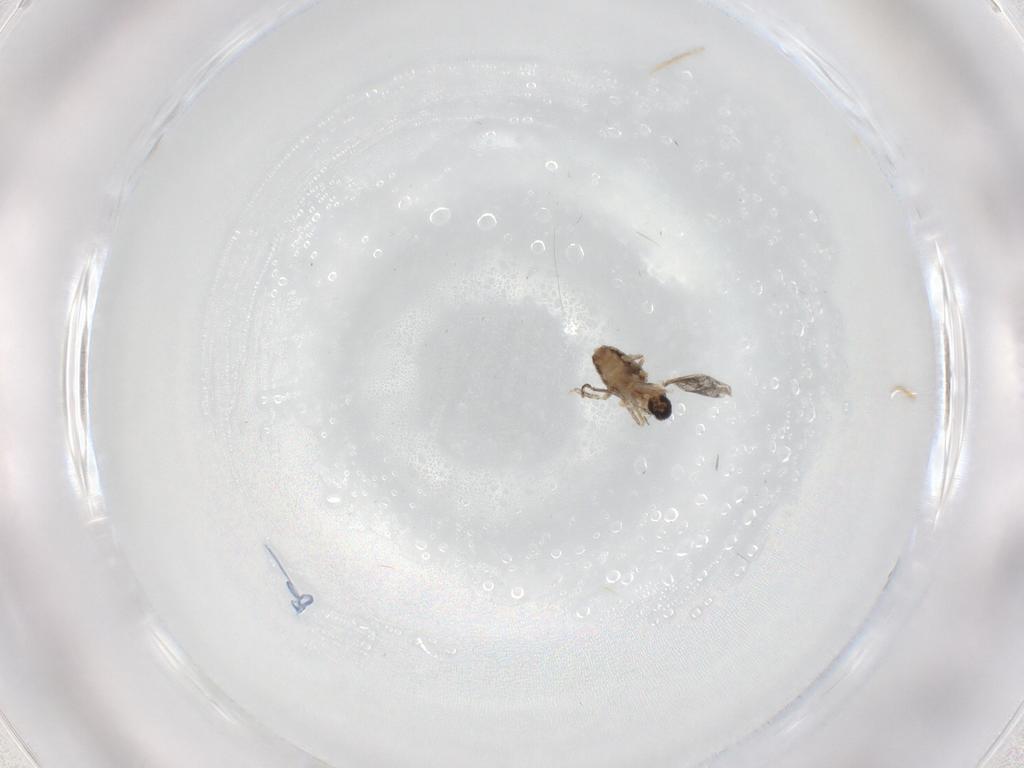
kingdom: Animalia
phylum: Arthropoda
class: Insecta
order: Diptera
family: Cecidomyiidae
